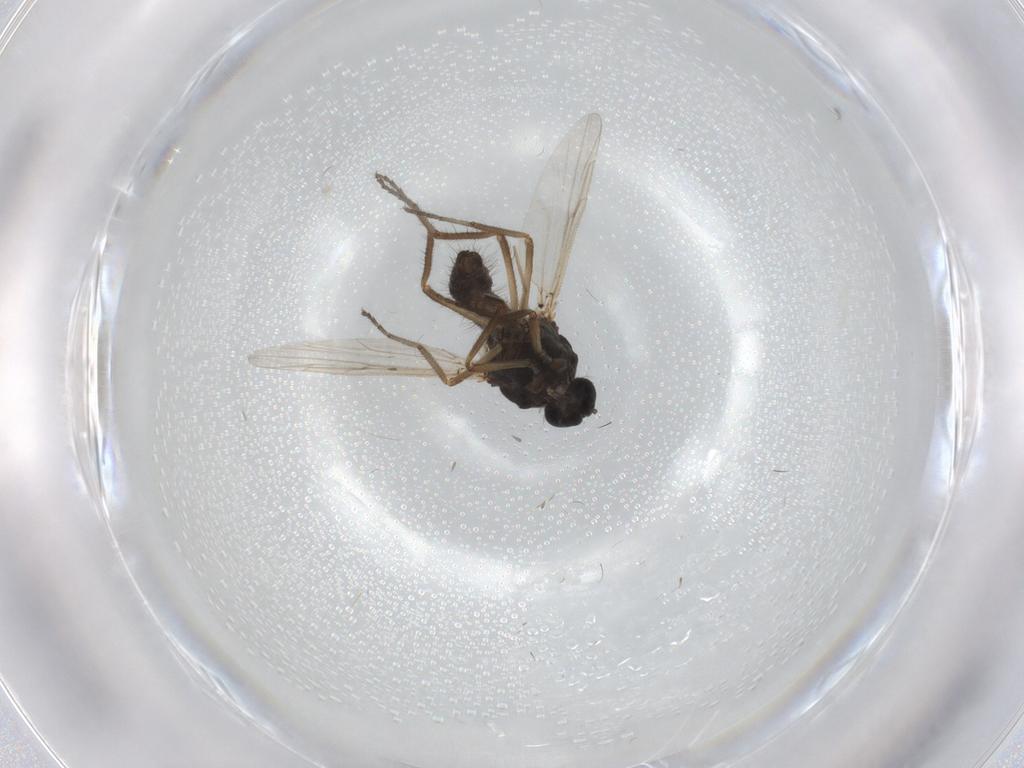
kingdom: Animalia
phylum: Arthropoda
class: Insecta
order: Diptera
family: Ceratopogonidae
